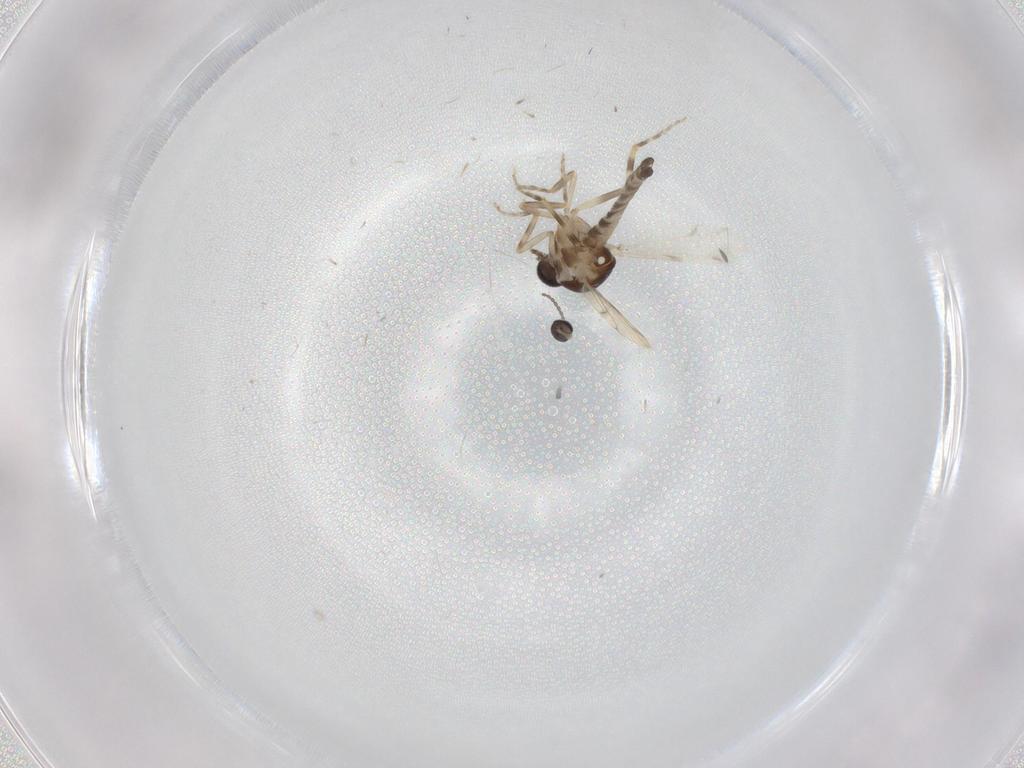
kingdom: Animalia
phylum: Arthropoda
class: Insecta
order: Diptera
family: Ceratopogonidae
